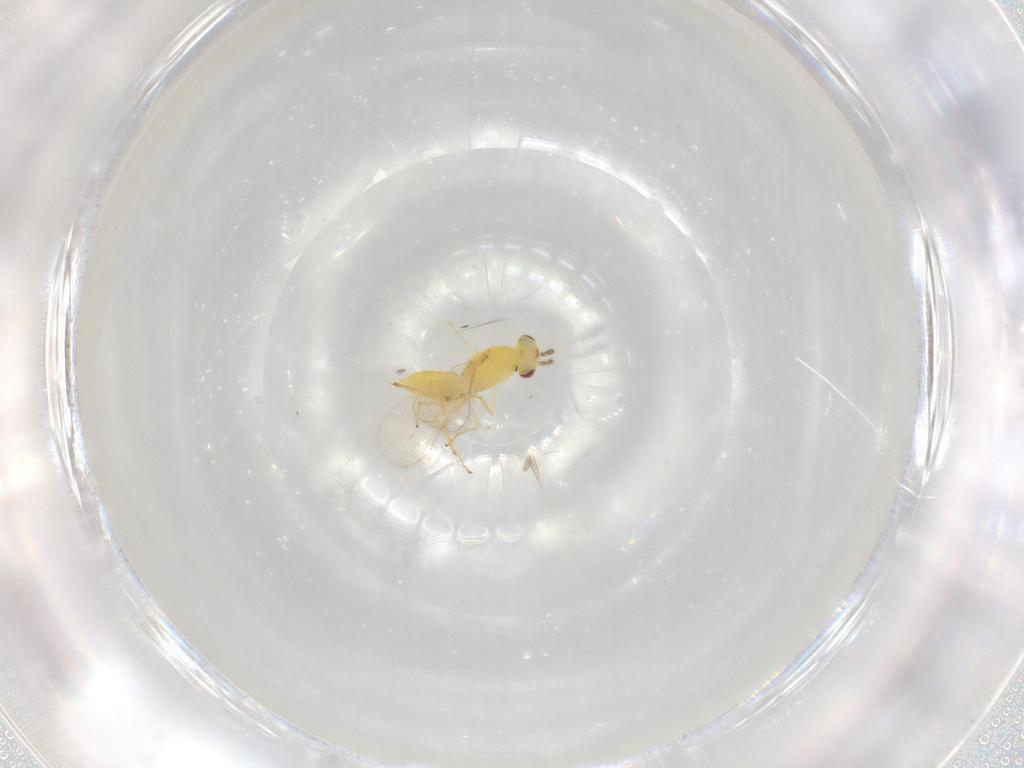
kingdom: Animalia
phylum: Arthropoda
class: Insecta
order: Hymenoptera
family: Eulophidae
